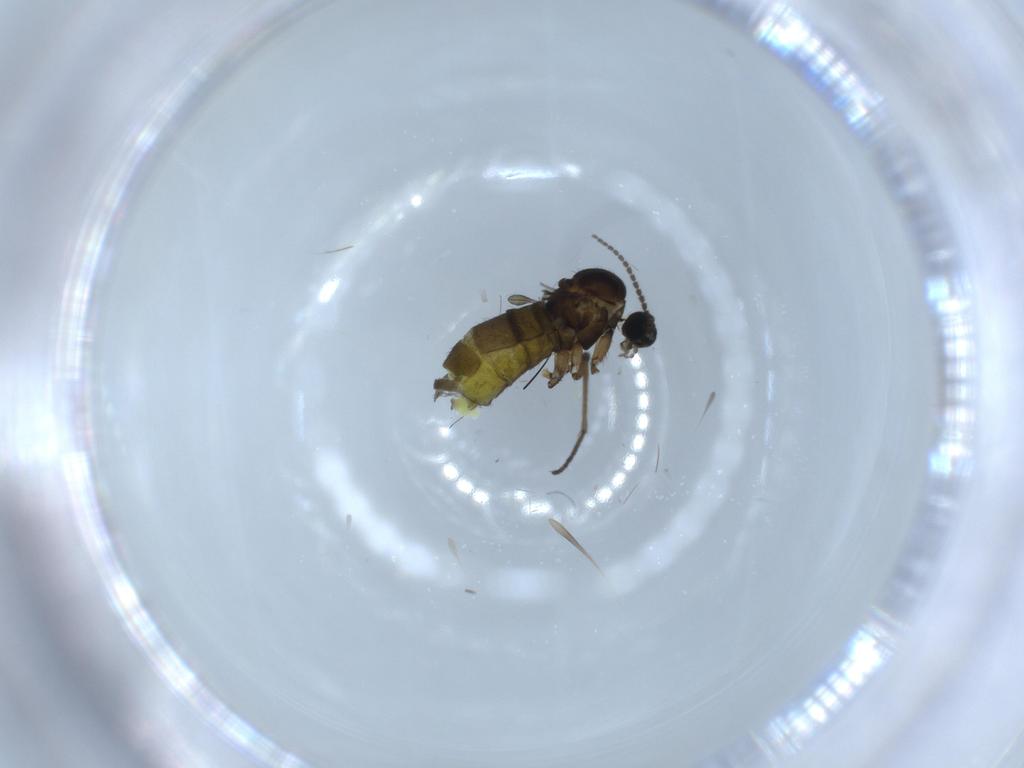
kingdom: Animalia
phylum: Arthropoda
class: Insecta
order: Diptera
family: Sciaridae
